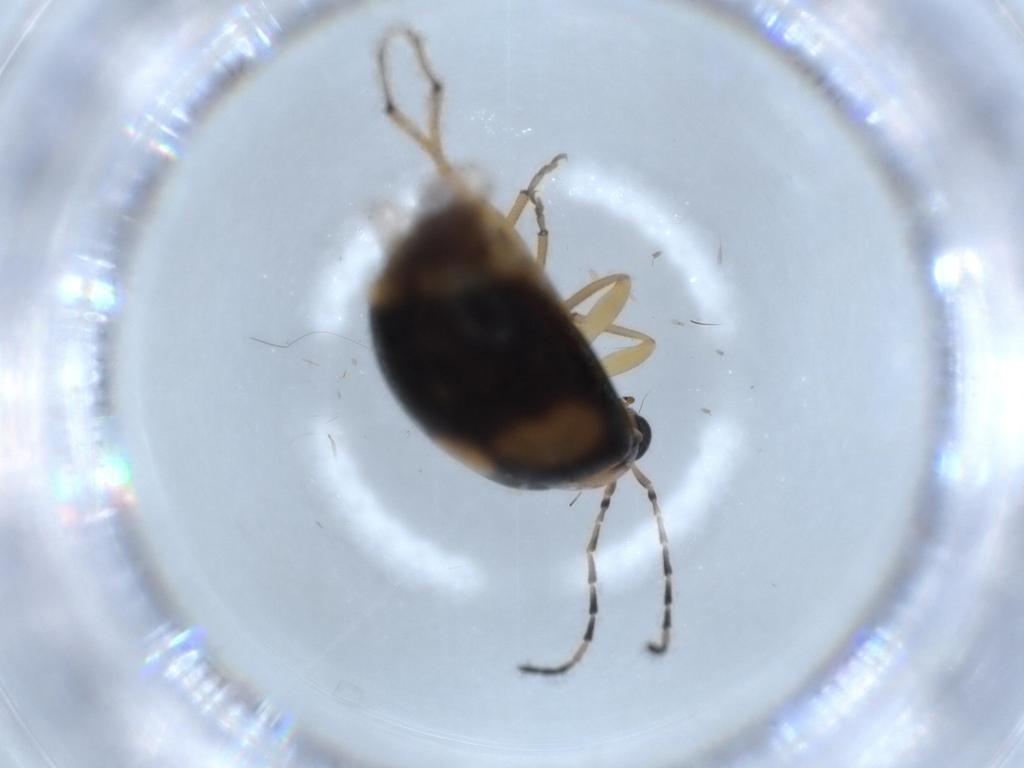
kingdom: Animalia
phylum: Arthropoda
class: Insecta
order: Coleoptera
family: Chrysomelidae
